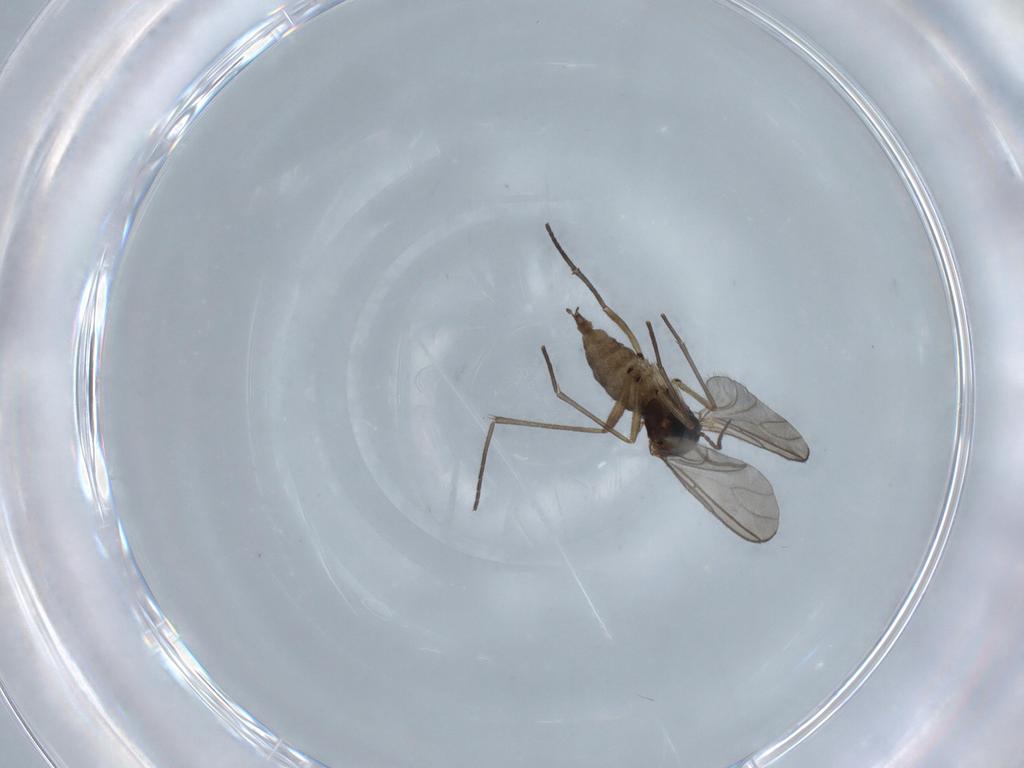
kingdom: Animalia
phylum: Arthropoda
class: Insecta
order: Diptera
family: Sciaridae
